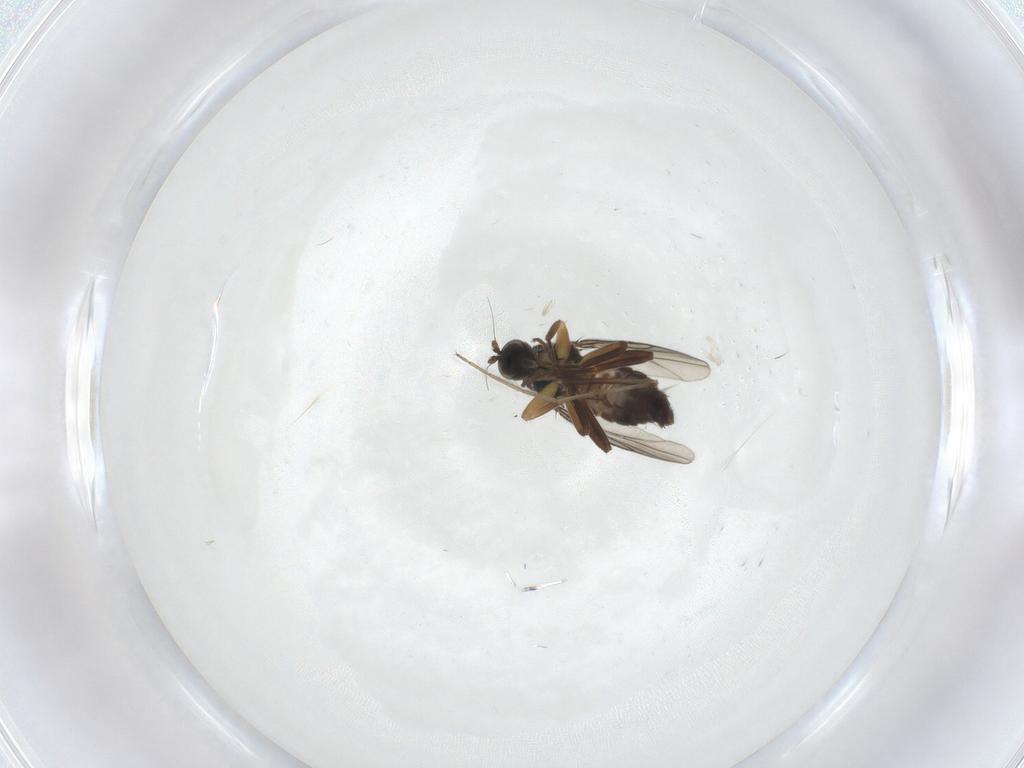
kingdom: Animalia
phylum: Arthropoda
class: Insecta
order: Diptera
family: Hybotidae
